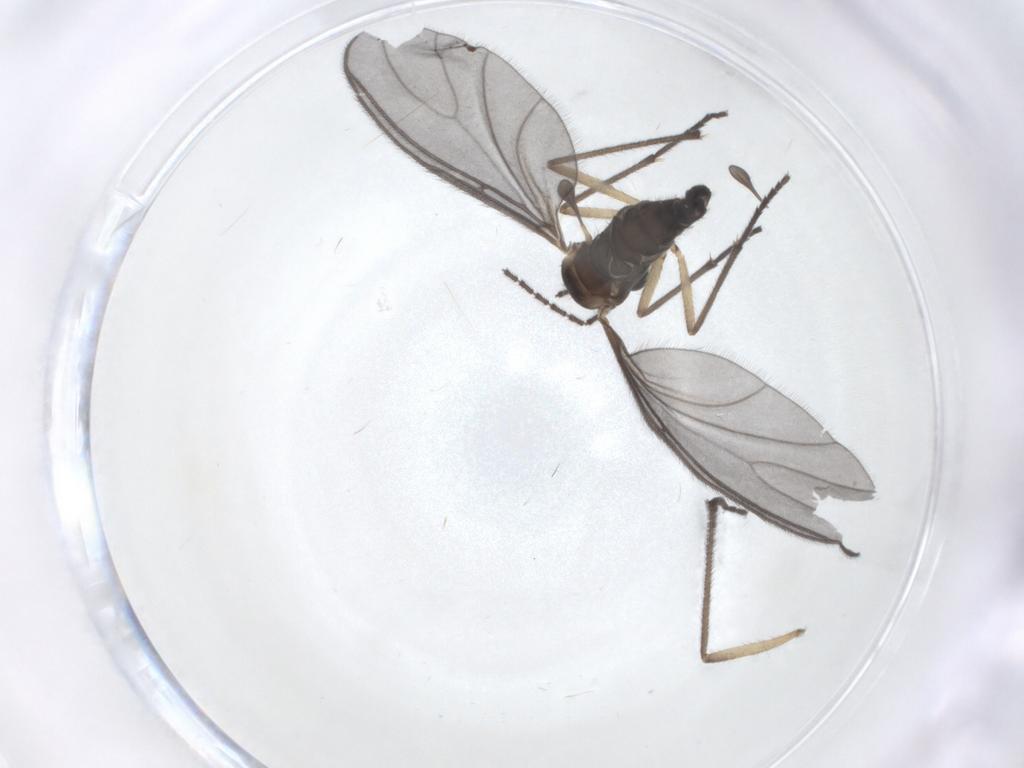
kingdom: Animalia
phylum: Arthropoda
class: Insecta
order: Diptera
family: Sciaridae
